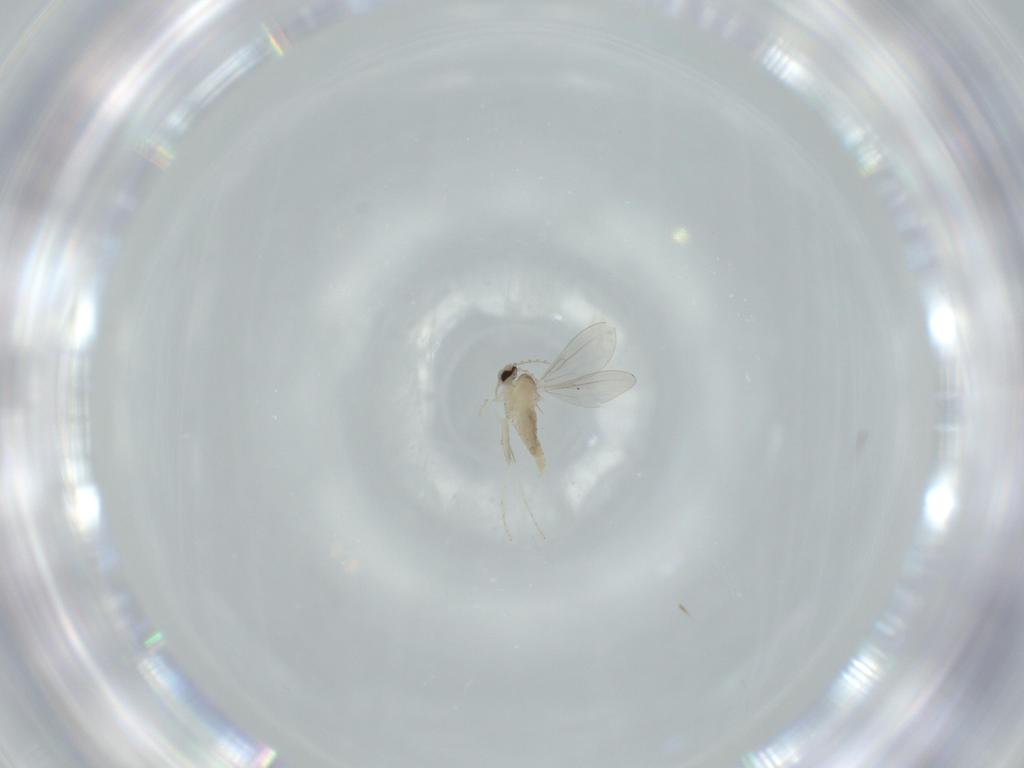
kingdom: Animalia
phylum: Arthropoda
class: Insecta
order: Diptera
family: Cecidomyiidae
